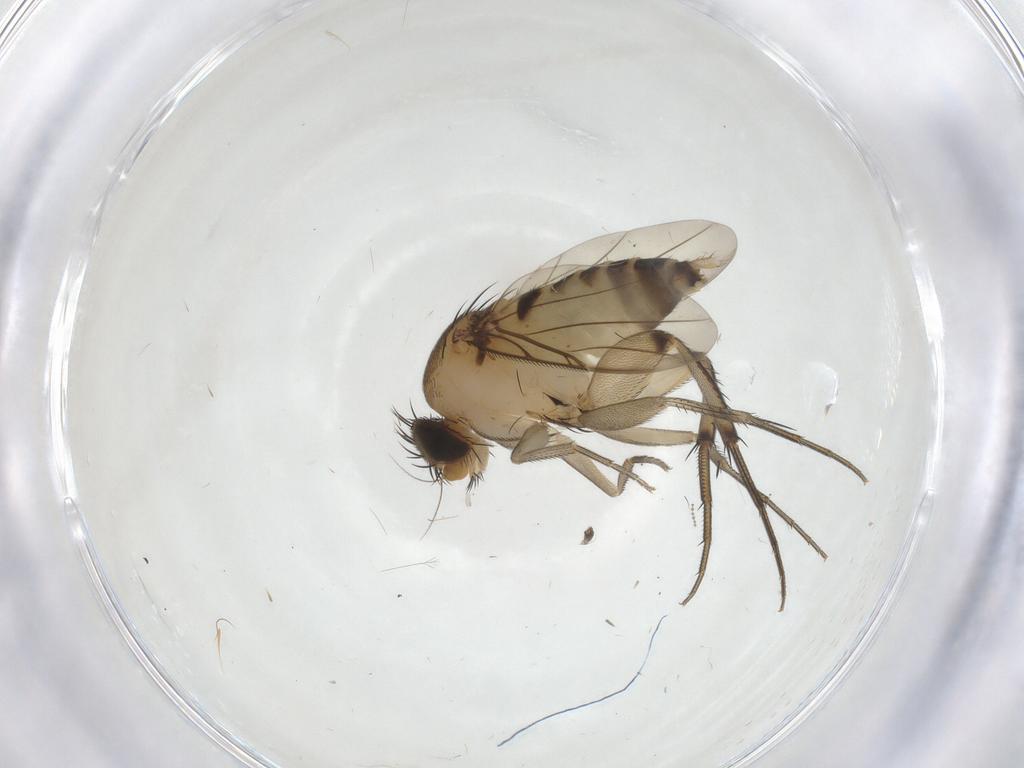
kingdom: Animalia
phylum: Arthropoda
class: Insecta
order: Diptera
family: Phoridae
